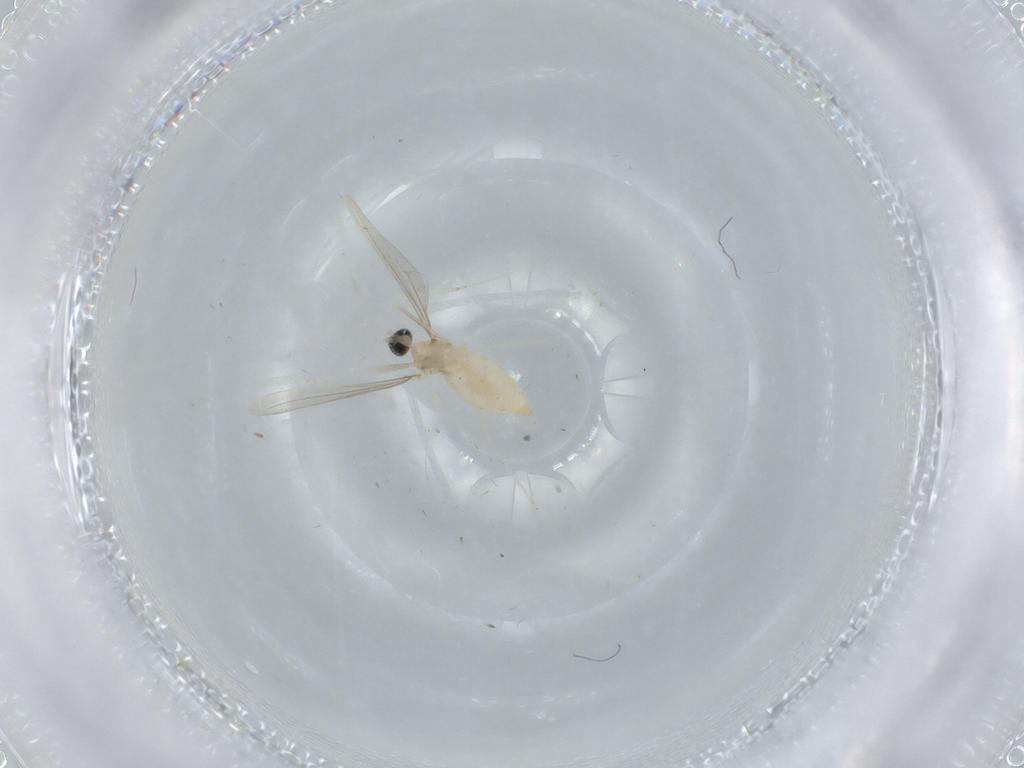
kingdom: Animalia
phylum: Arthropoda
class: Insecta
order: Diptera
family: Cecidomyiidae
